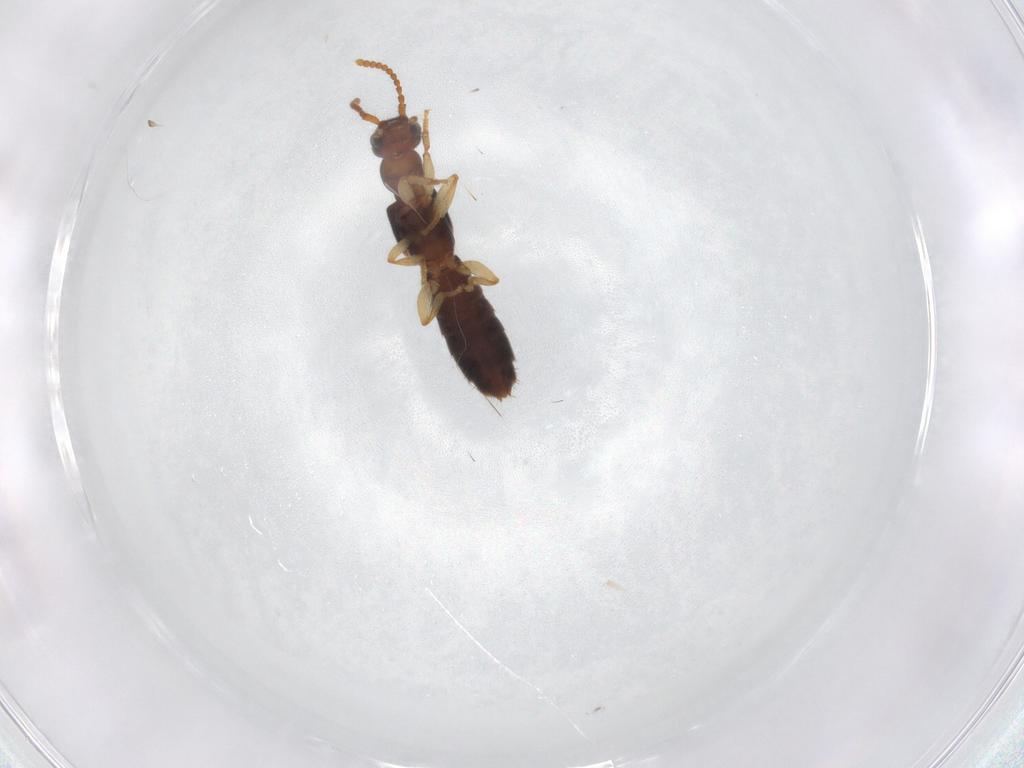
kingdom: Animalia
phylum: Arthropoda
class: Insecta
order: Coleoptera
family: Staphylinidae
